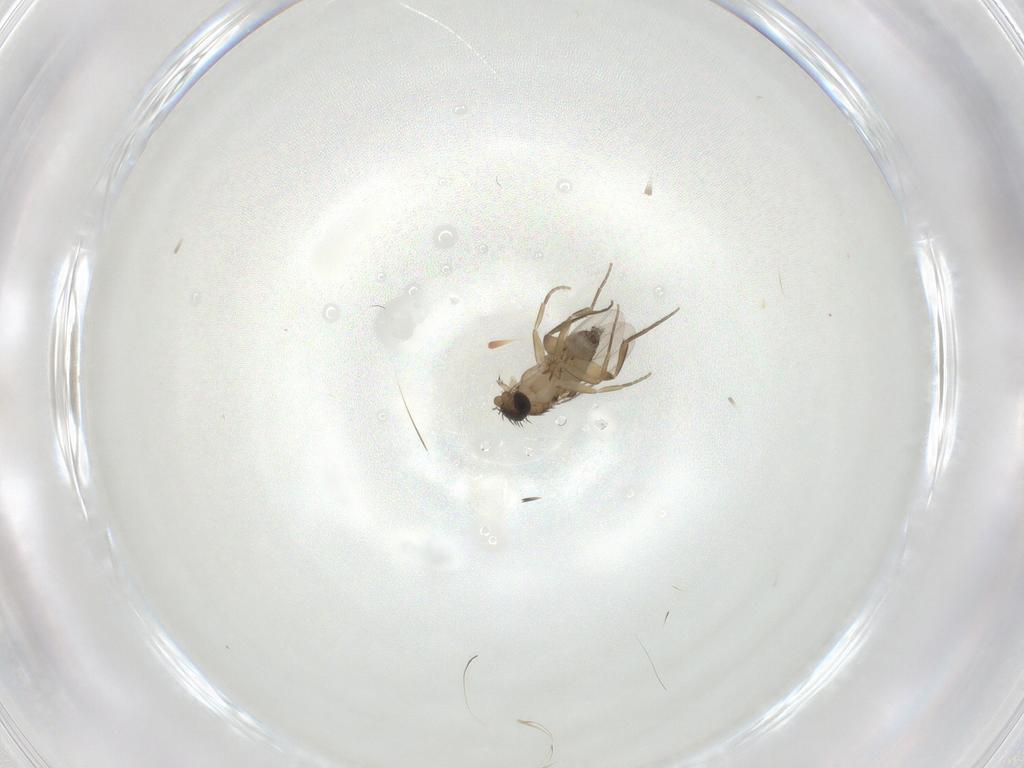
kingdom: Animalia
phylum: Arthropoda
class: Insecta
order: Diptera
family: Phoridae
